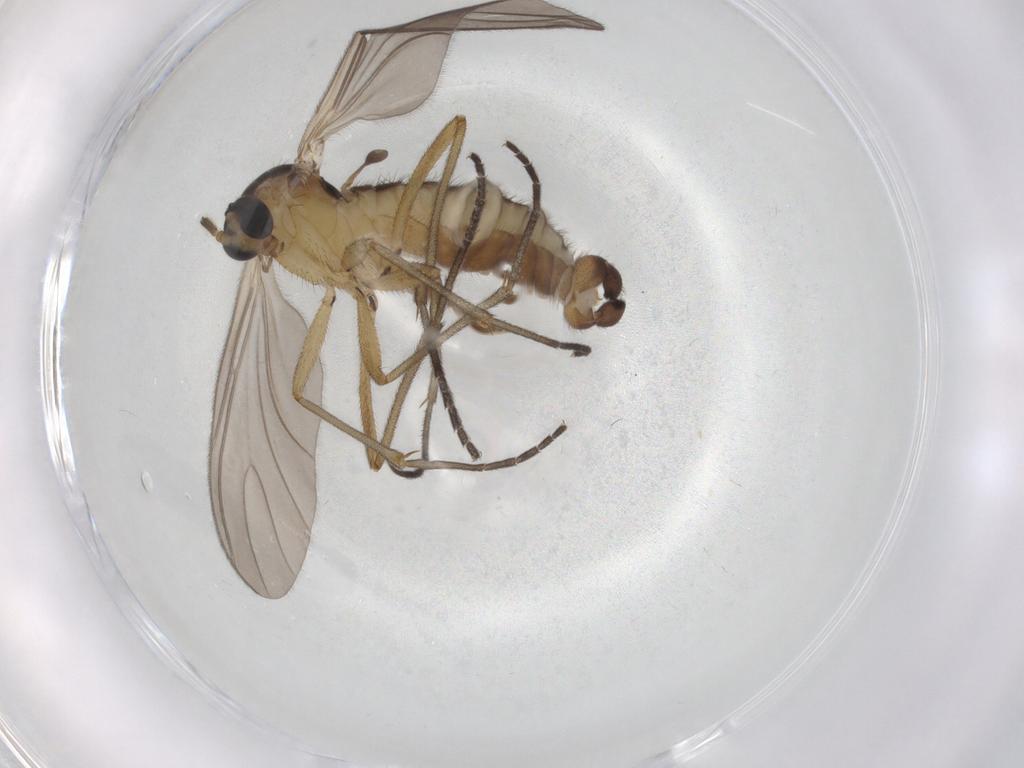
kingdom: Animalia
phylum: Arthropoda
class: Insecta
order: Diptera
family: Sciaridae
